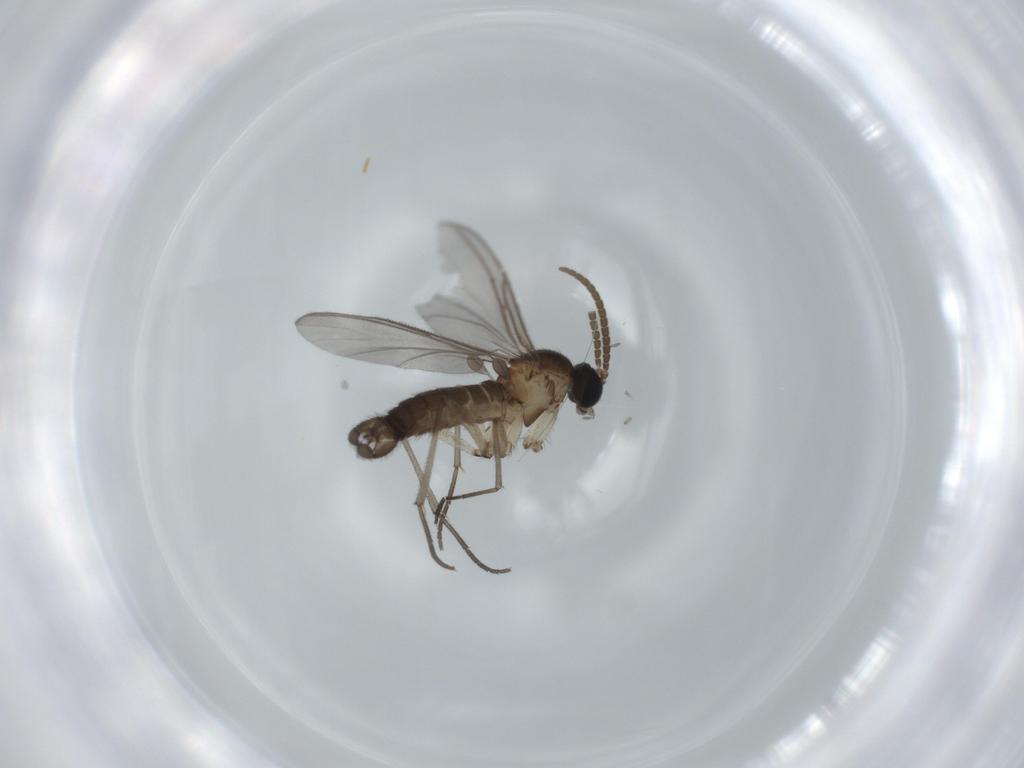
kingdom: Animalia
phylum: Arthropoda
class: Insecta
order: Diptera
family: Sciaridae
